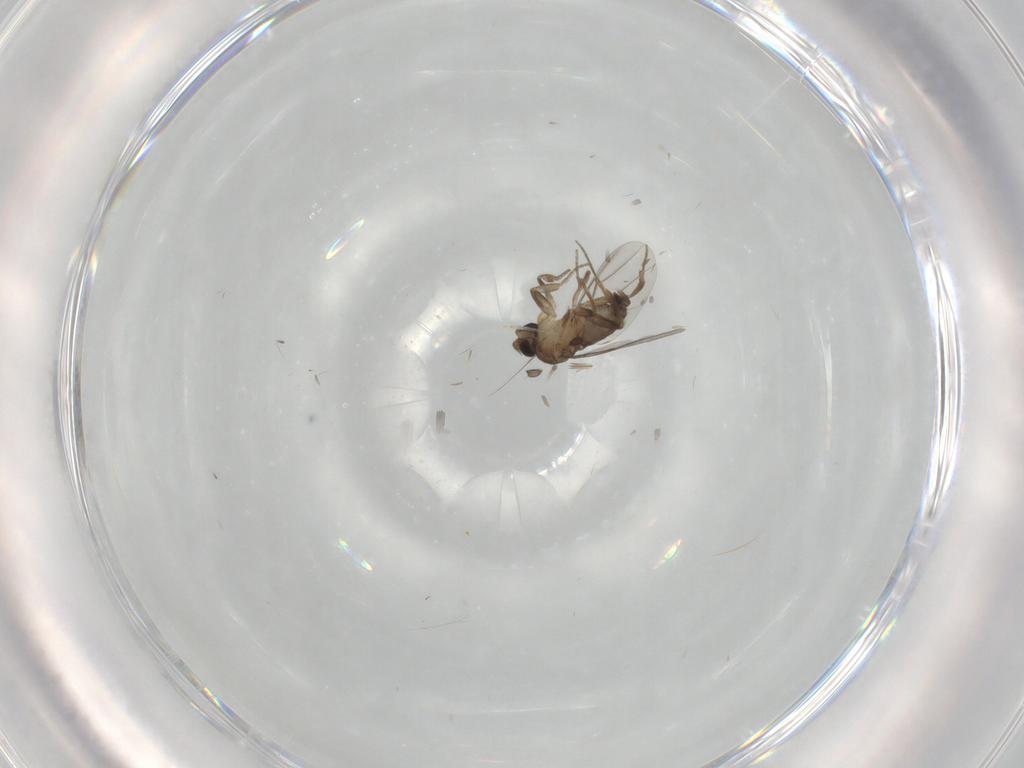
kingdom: Animalia
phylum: Arthropoda
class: Insecta
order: Diptera
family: Phoridae
